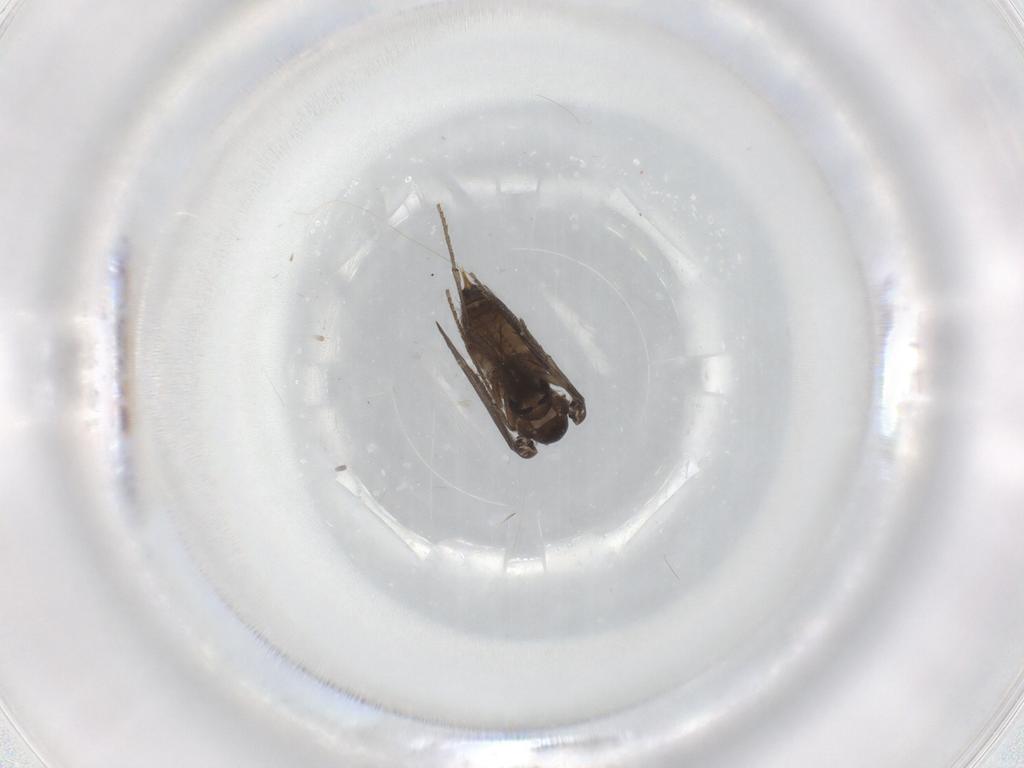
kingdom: Animalia
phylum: Arthropoda
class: Insecta
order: Diptera
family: Psychodidae
